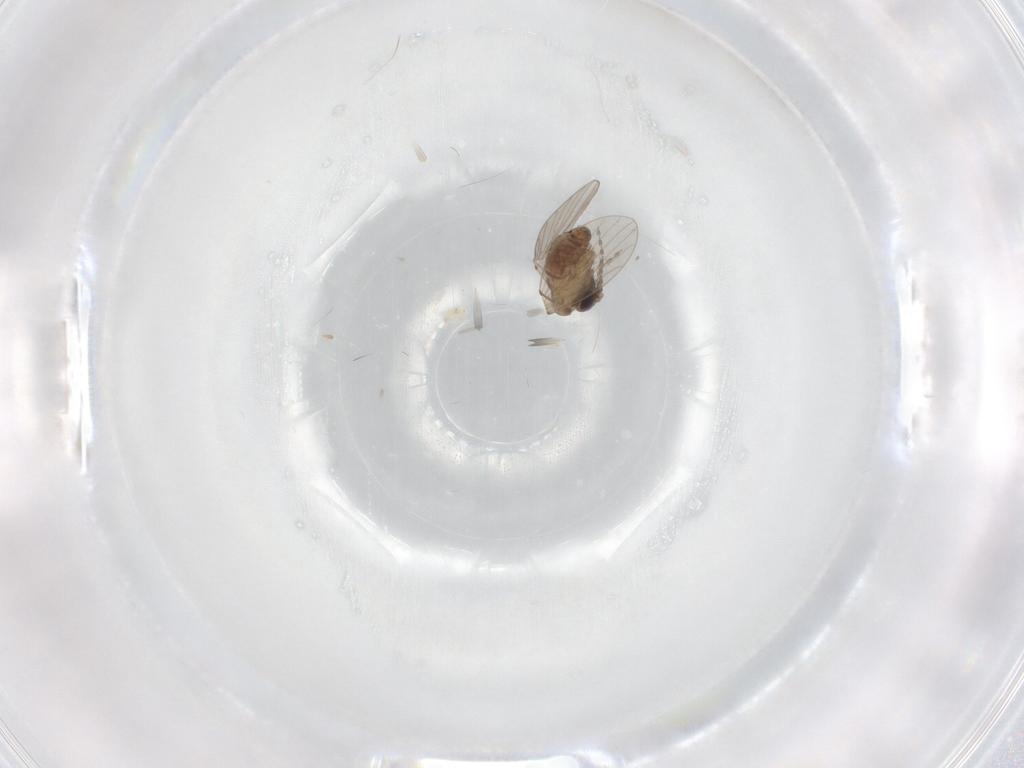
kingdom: Animalia
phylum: Arthropoda
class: Insecta
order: Diptera
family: Psychodidae
